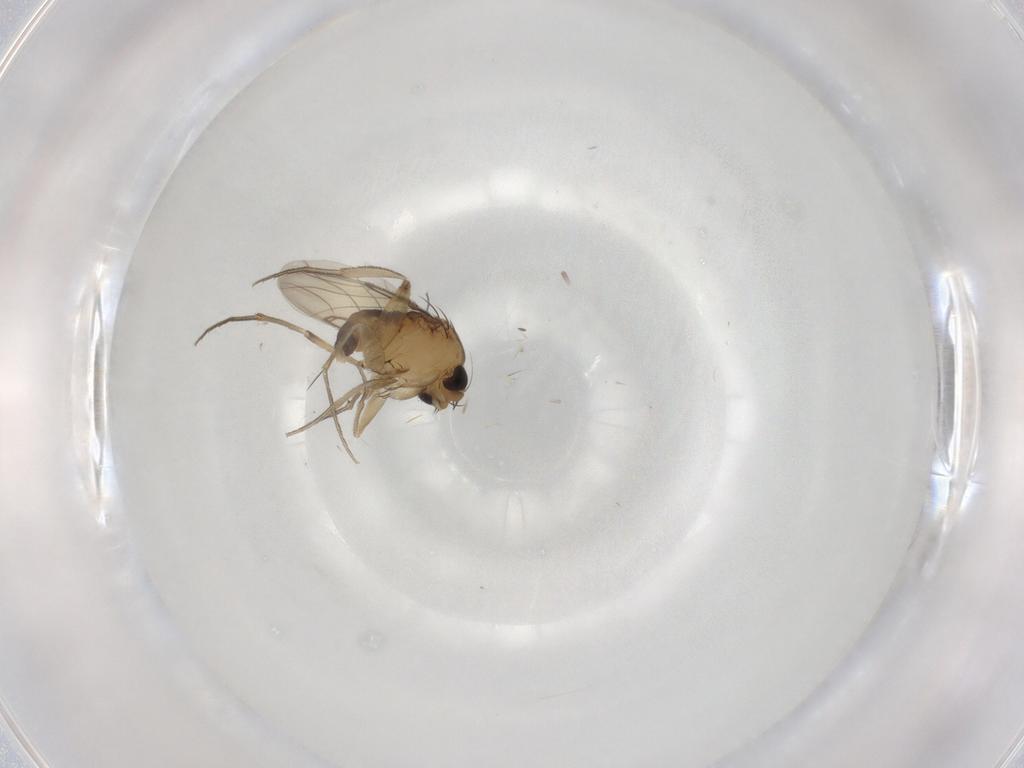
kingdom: Animalia
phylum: Arthropoda
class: Insecta
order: Diptera
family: Phoridae
